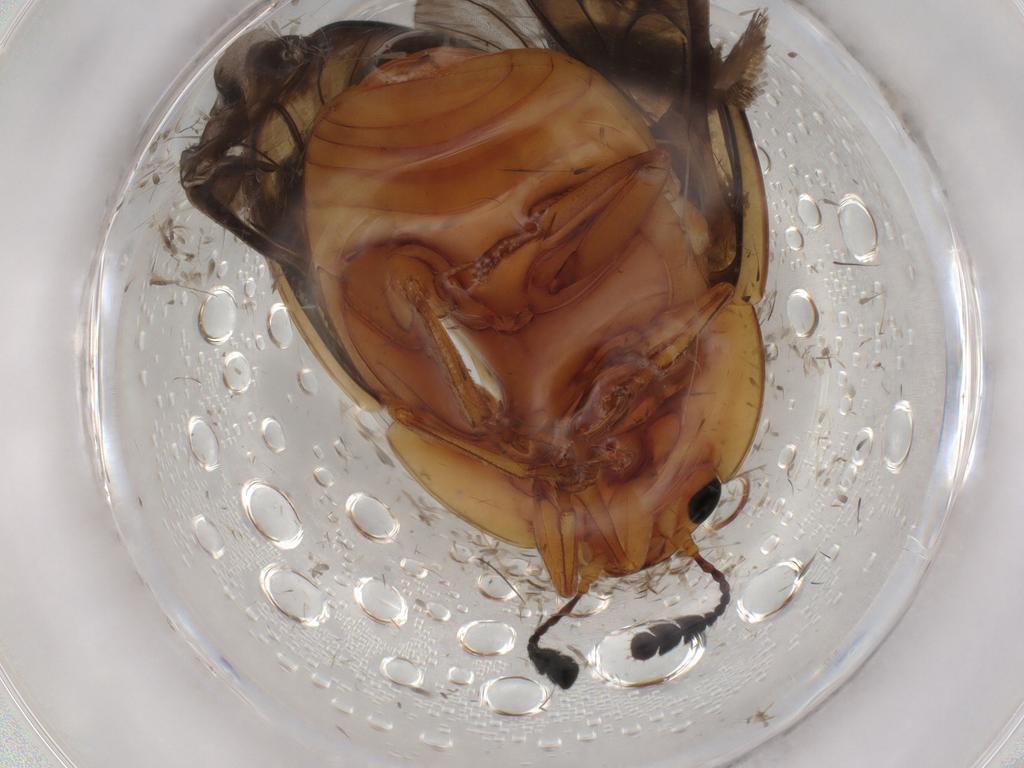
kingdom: Animalia
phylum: Arthropoda
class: Insecta
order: Coleoptera
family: Erotylidae
